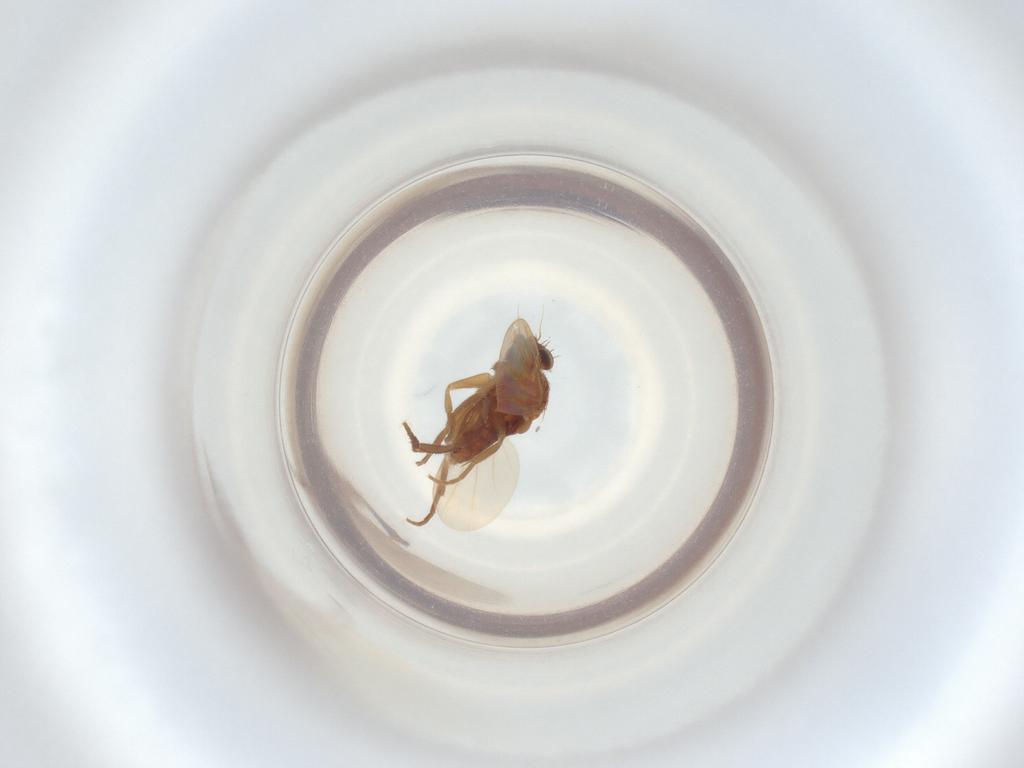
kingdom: Animalia
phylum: Arthropoda
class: Insecta
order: Diptera
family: Phoridae
